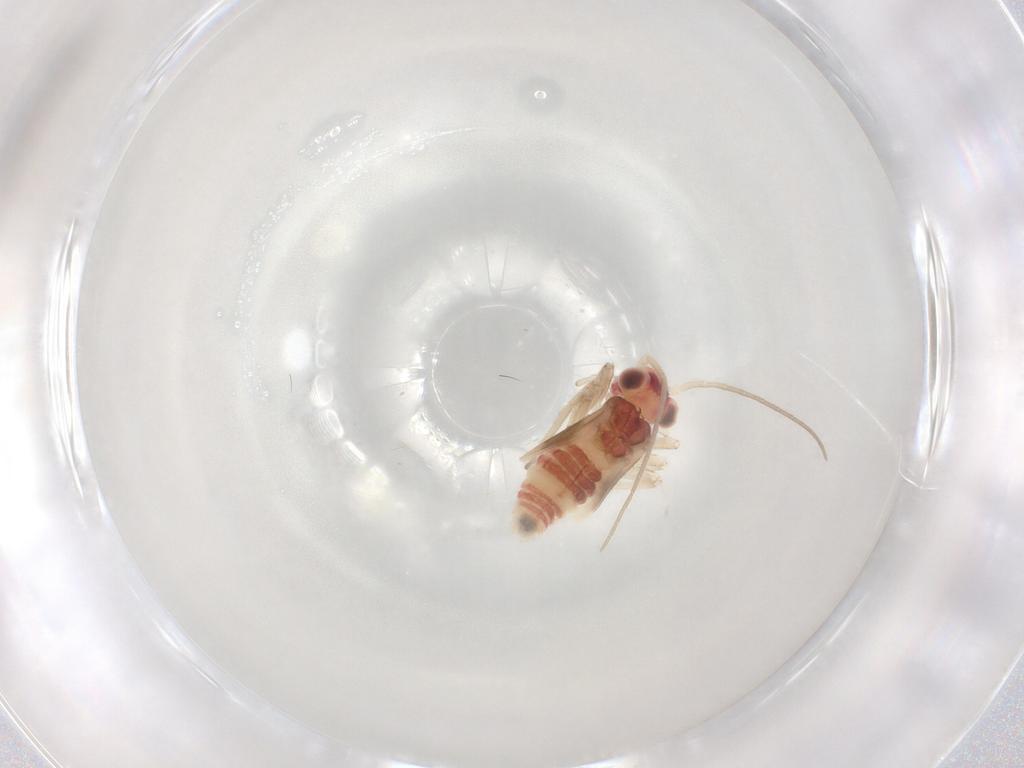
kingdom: Animalia
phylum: Arthropoda
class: Insecta
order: Psocodea
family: Caeciliusidae
